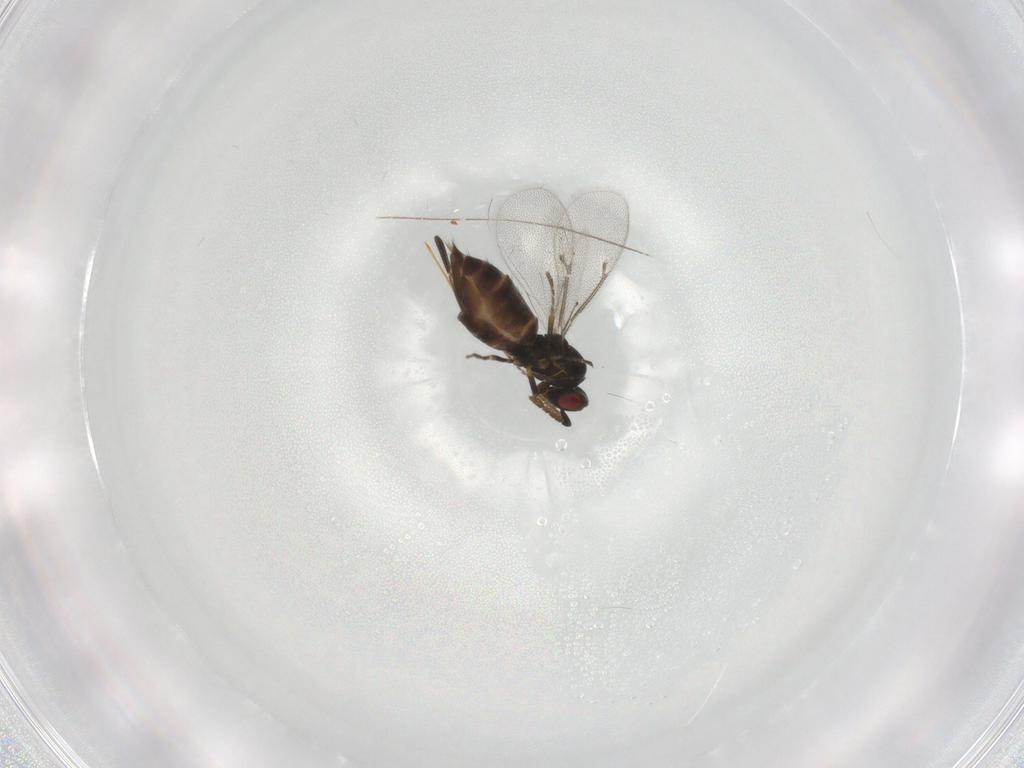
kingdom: Animalia
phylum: Arthropoda
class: Insecta
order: Hymenoptera
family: Eulophidae
